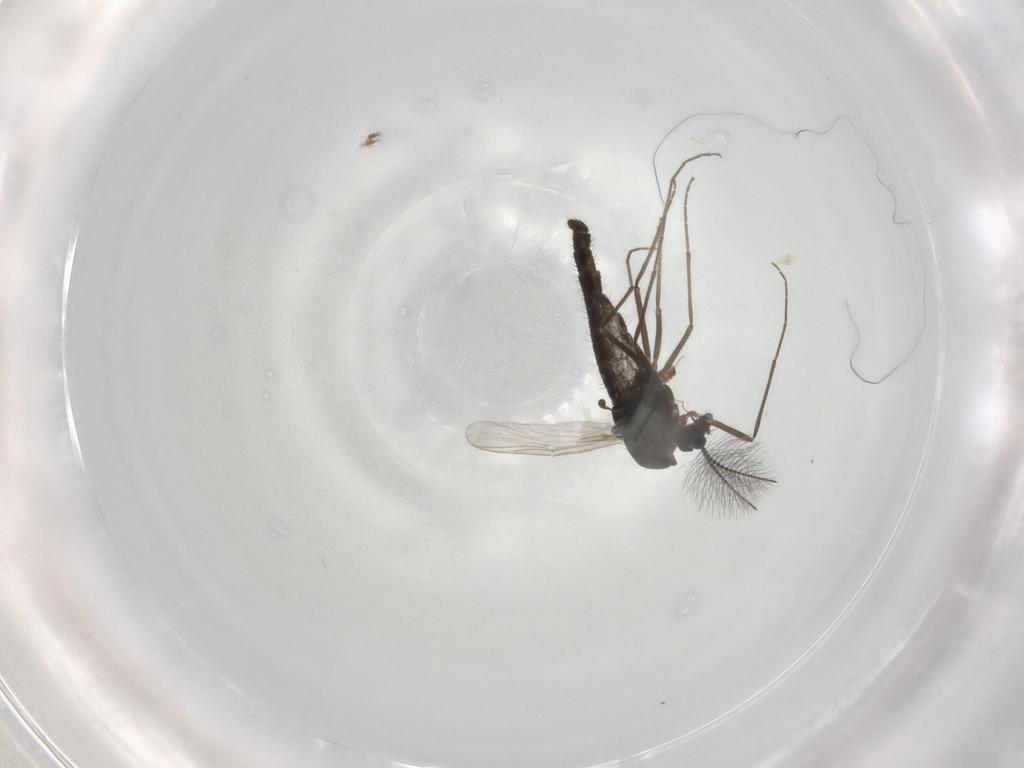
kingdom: Animalia
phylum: Arthropoda
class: Insecta
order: Diptera
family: Chironomidae
